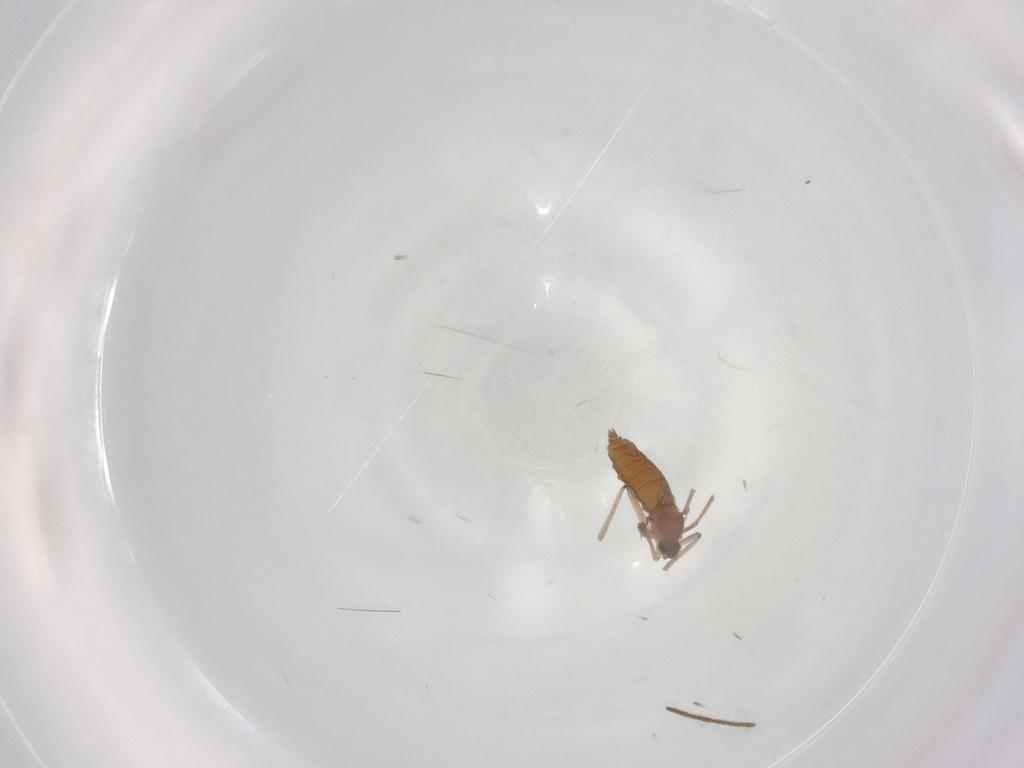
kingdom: Animalia
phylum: Arthropoda
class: Insecta
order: Diptera
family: Cecidomyiidae
